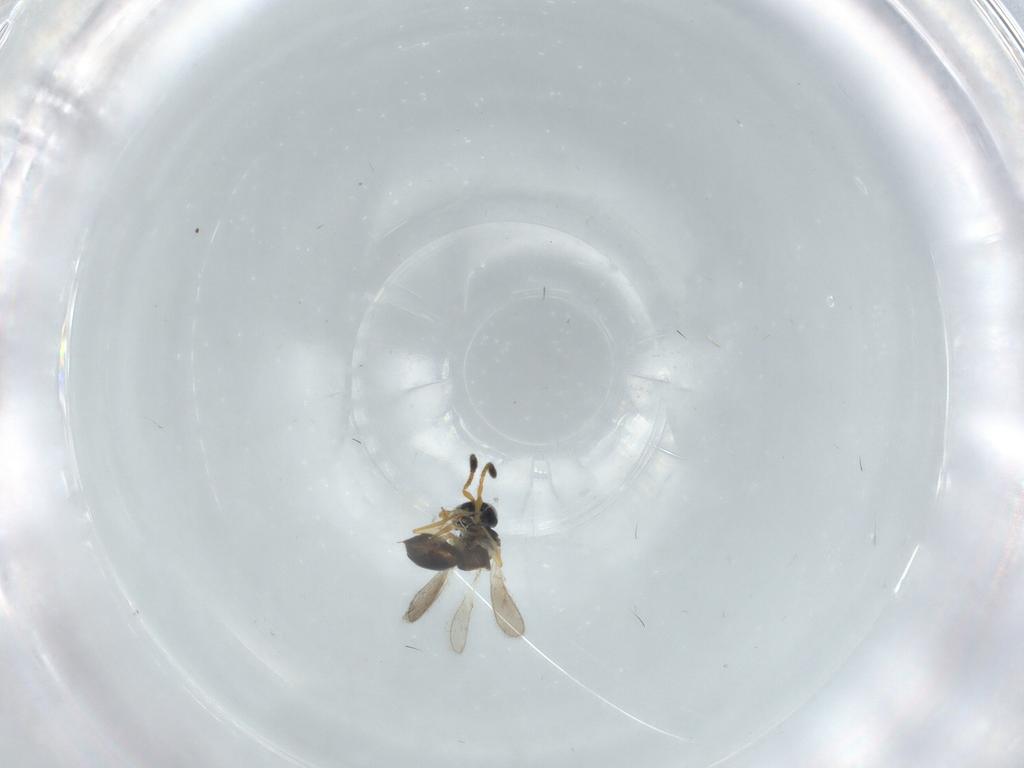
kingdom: Animalia
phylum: Arthropoda
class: Insecta
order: Hymenoptera
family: Scelionidae
